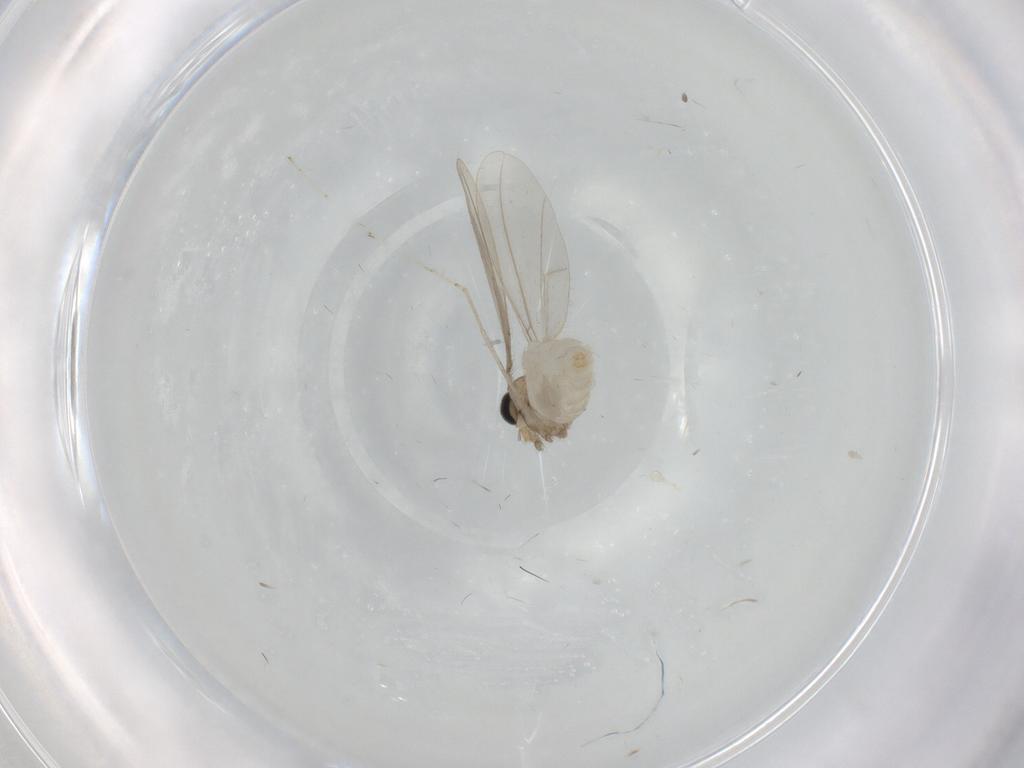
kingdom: Animalia
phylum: Arthropoda
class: Insecta
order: Diptera
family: Cecidomyiidae
